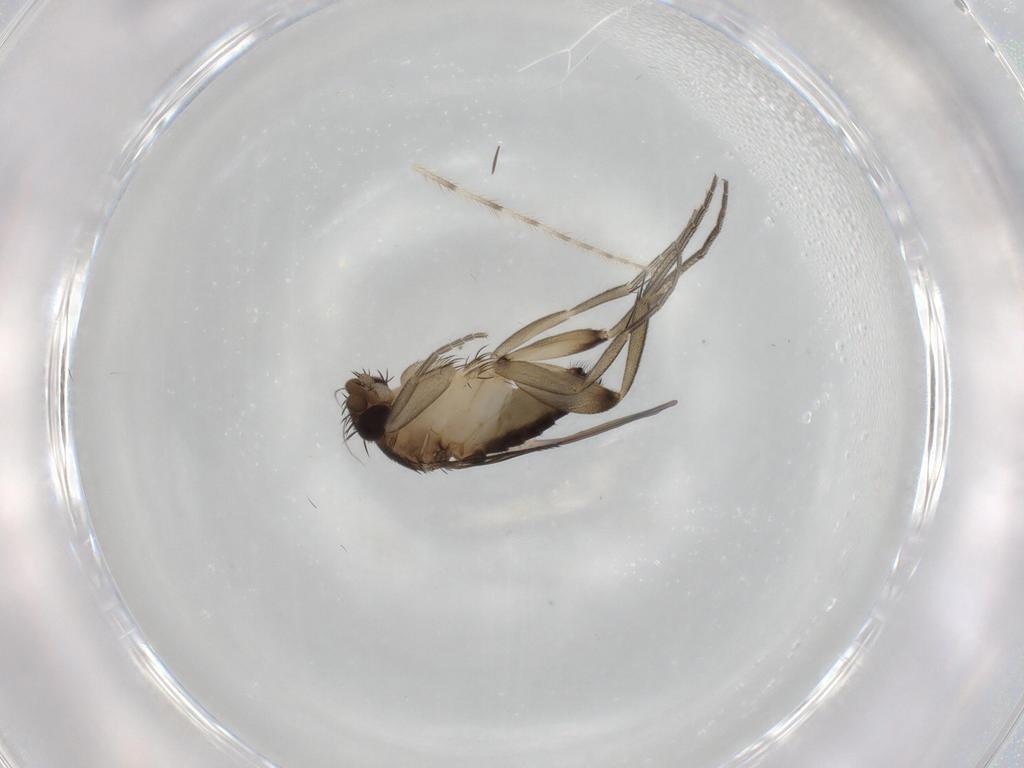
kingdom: Animalia
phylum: Arthropoda
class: Insecta
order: Diptera
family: Phoridae
